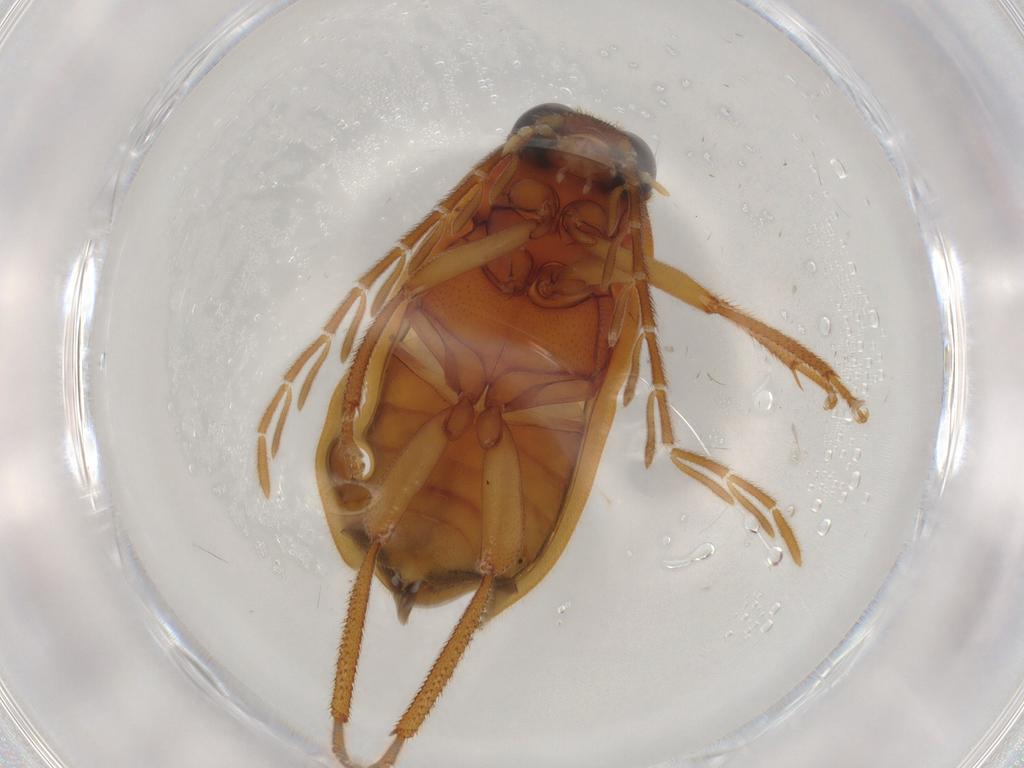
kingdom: Animalia
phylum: Arthropoda
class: Insecta
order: Coleoptera
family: Ptilodactylidae
